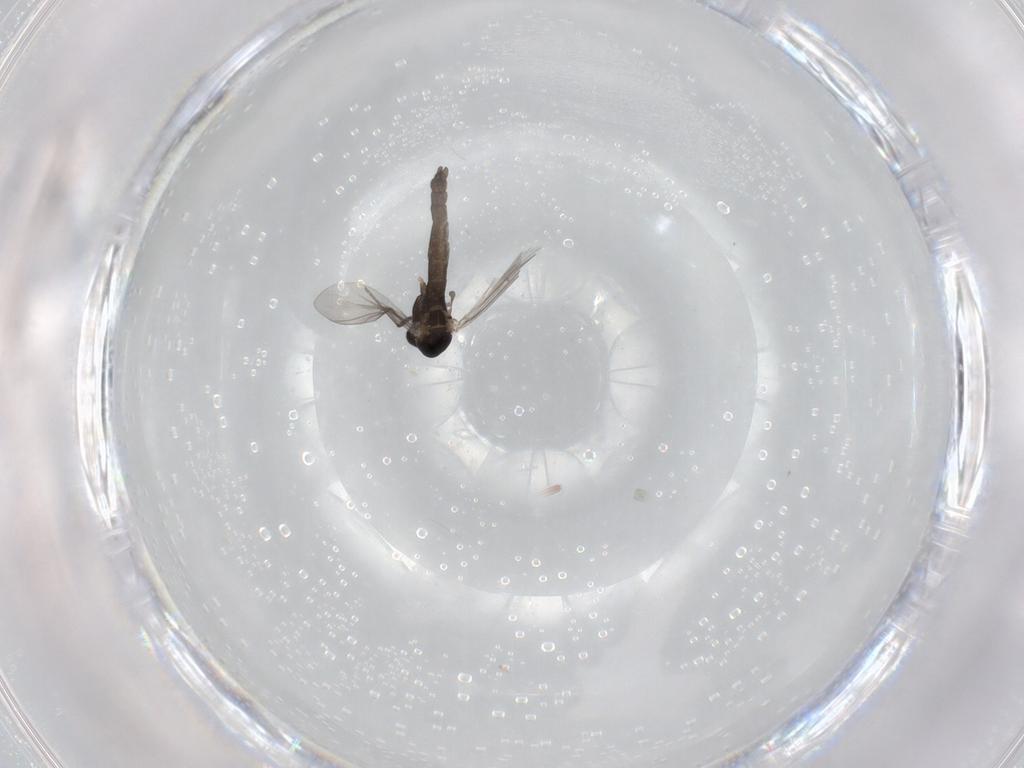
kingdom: Animalia
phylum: Arthropoda
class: Insecta
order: Diptera
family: Chironomidae
